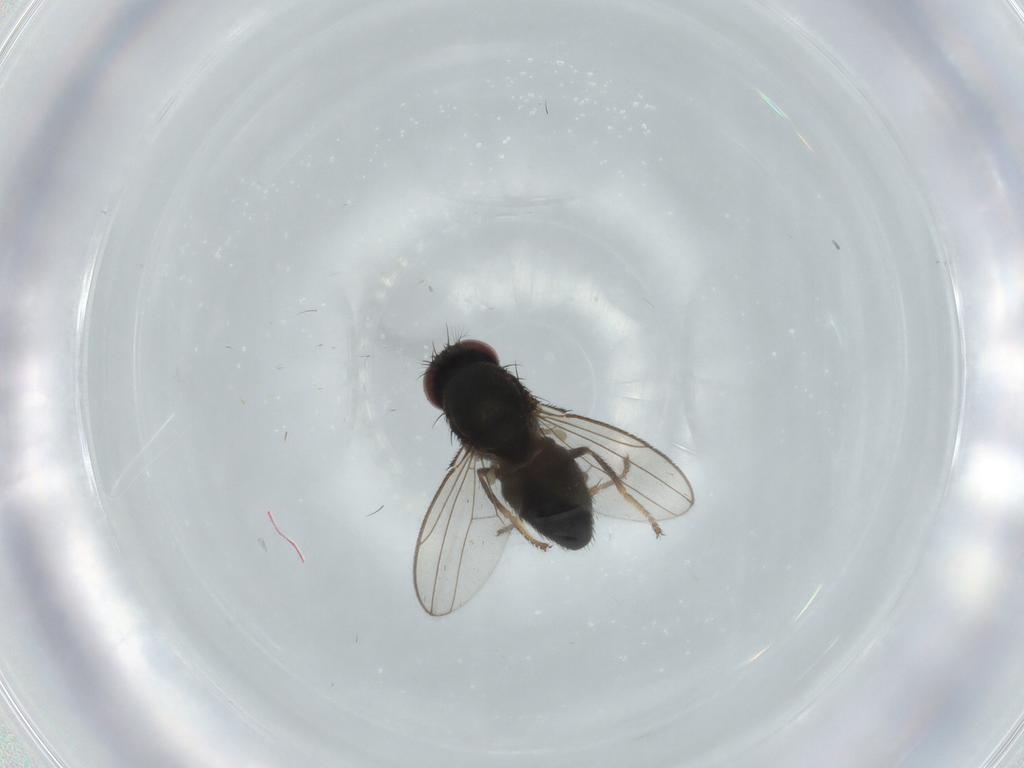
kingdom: Animalia
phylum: Arthropoda
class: Insecta
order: Diptera
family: Ephydridae
